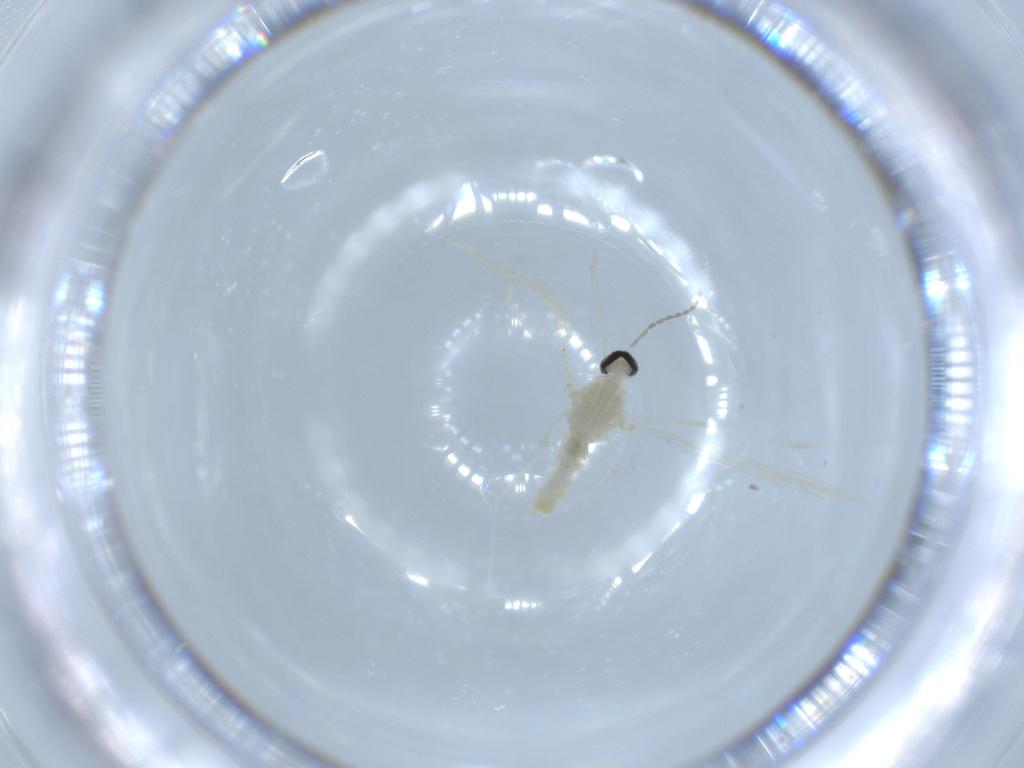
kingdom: Animalia
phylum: Arthropoda
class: Insecta
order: Diptera
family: Cecidomyiidae
